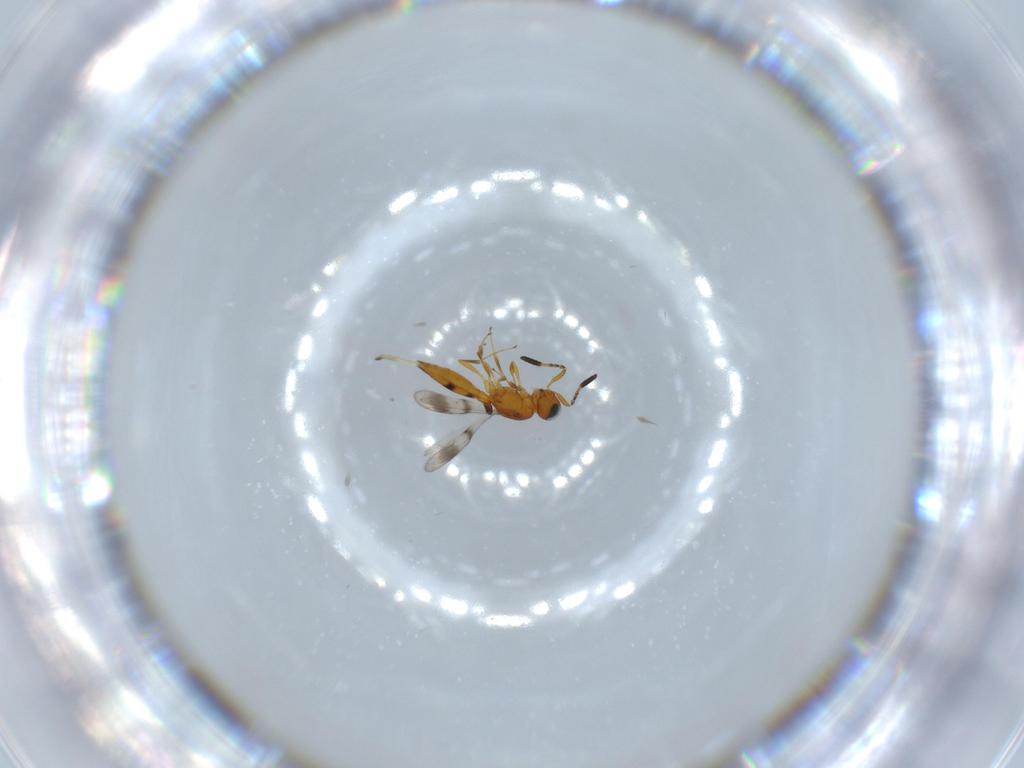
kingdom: Animalia
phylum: Arthropoda
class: Insecta
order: Hymenoptera
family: Scelionidae
